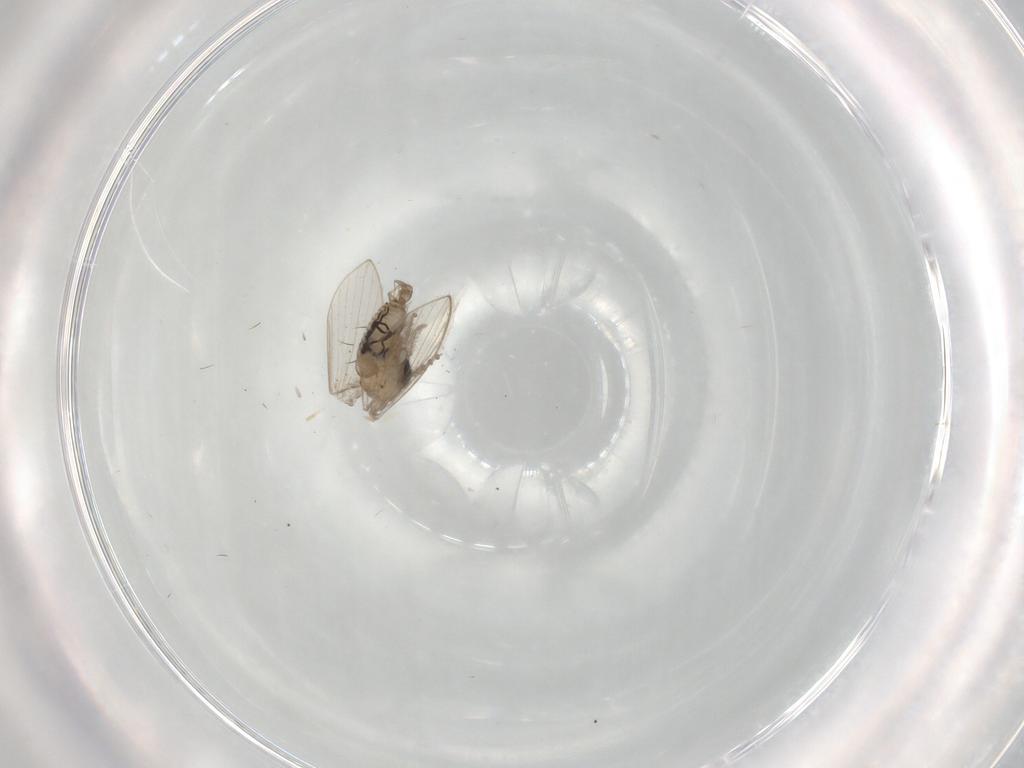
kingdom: Animalia
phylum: Arthropoda
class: Insecta
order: Diptera
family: Psychodidae
